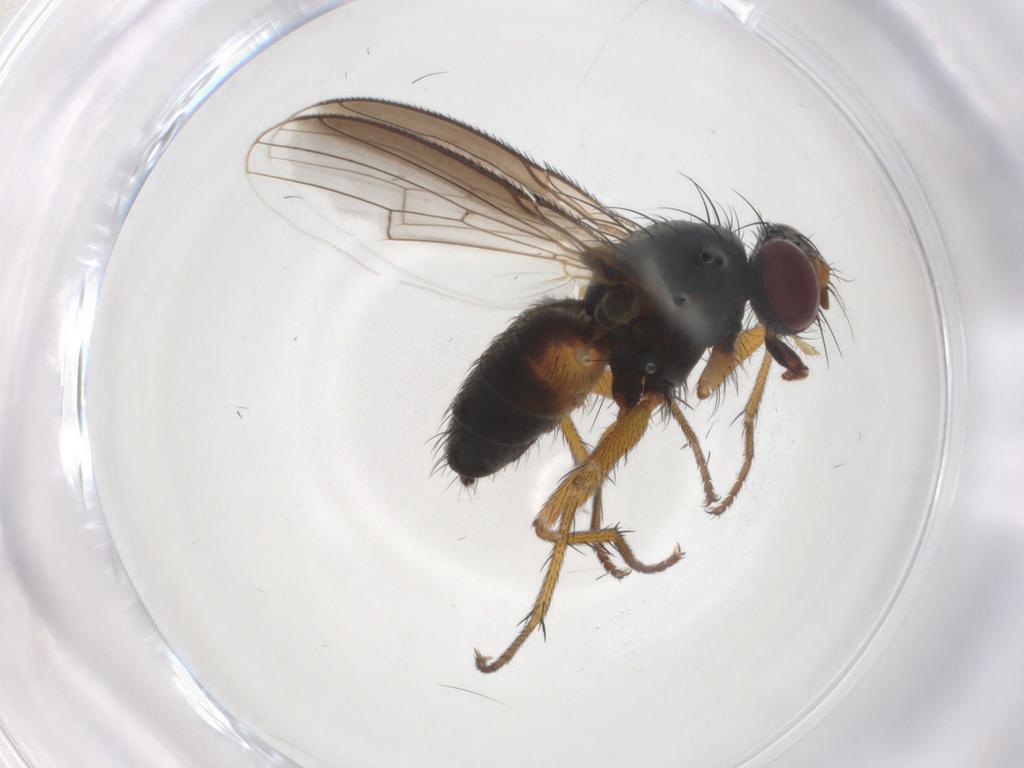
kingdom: Animalia
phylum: Arthropoda
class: Insecta
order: Diptera
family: Muscidae
